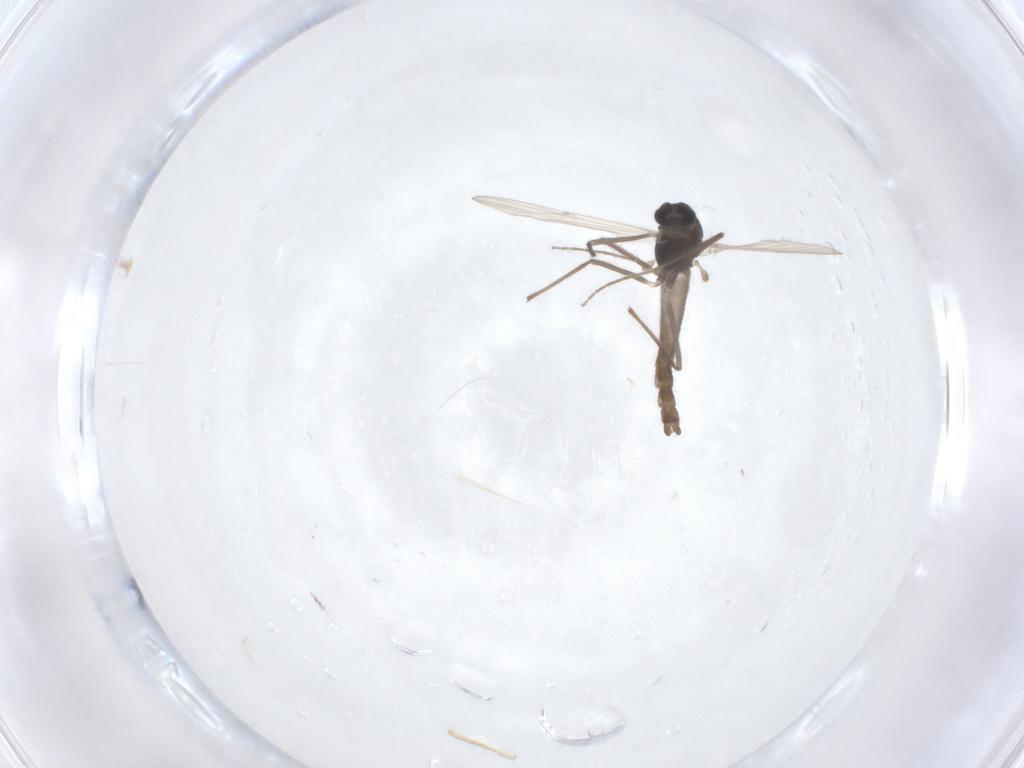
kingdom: Animalia
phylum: Arthropoda
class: Insecta
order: Diptera
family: Chironomidae
